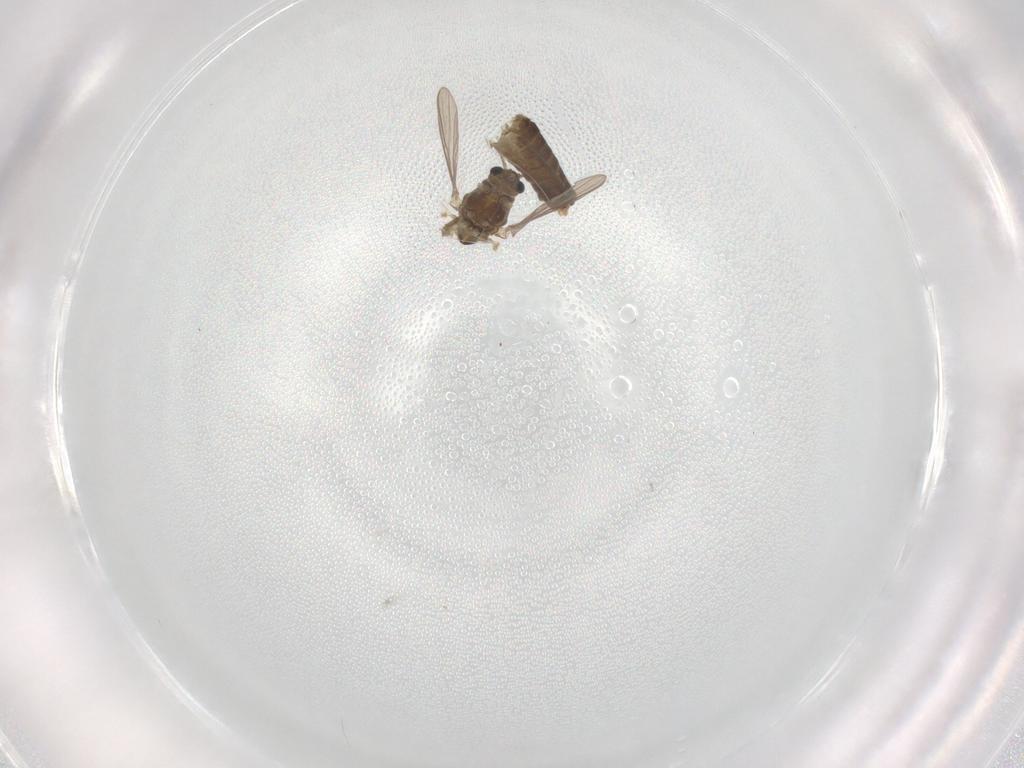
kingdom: Animalia
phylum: Arthropoda
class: Insecta
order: Diptera
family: Chironomidae
